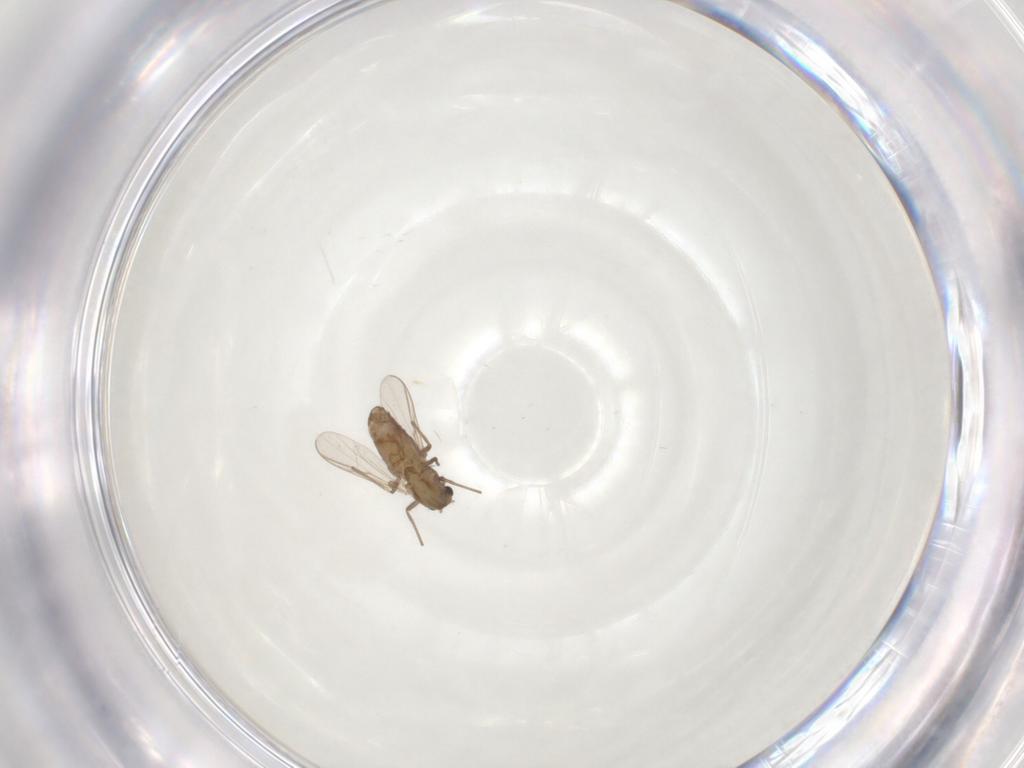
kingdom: Animalia
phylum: Arthropoda
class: Insecta
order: Diptera
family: Chironomidae
